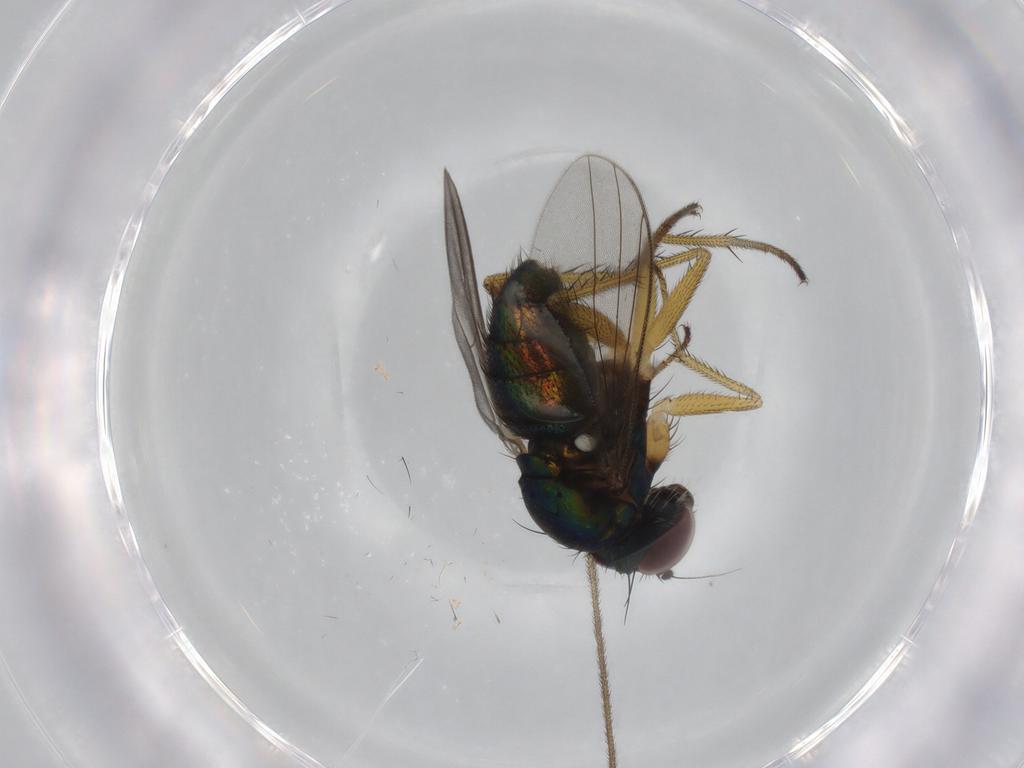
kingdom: Animalia
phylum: Arthropoda
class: Insecta
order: Diptera
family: Dolichopodidae
